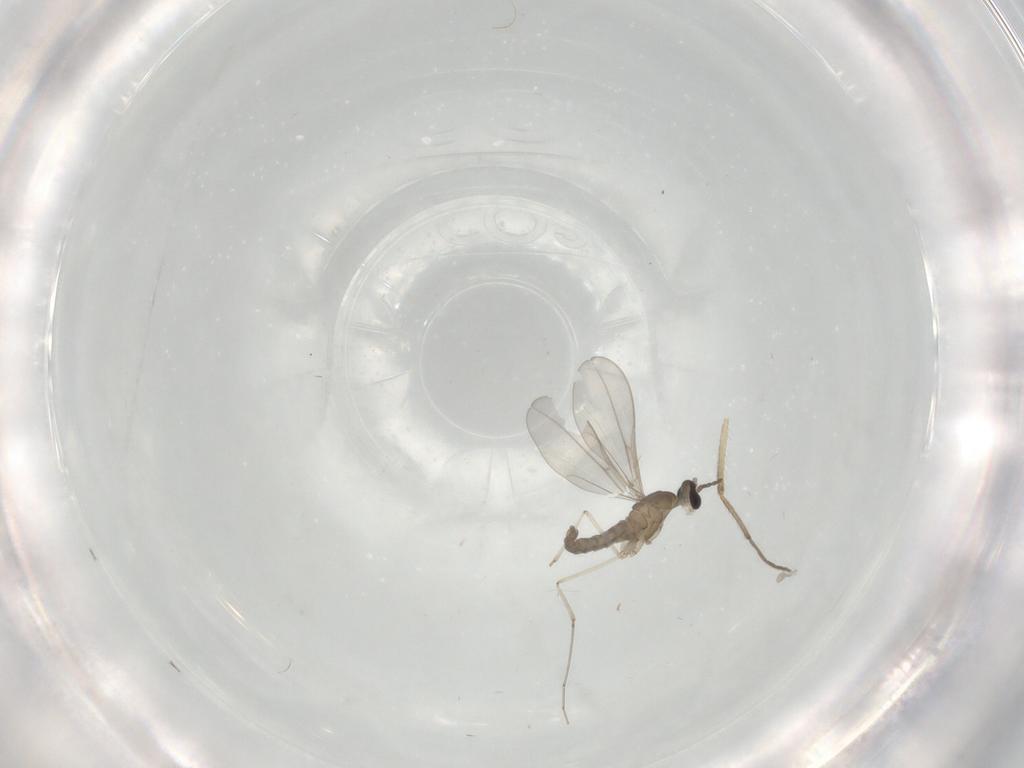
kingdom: Animalia
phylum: Arthropoda
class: Insecta
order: Diptera
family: Cecidomyiidae
